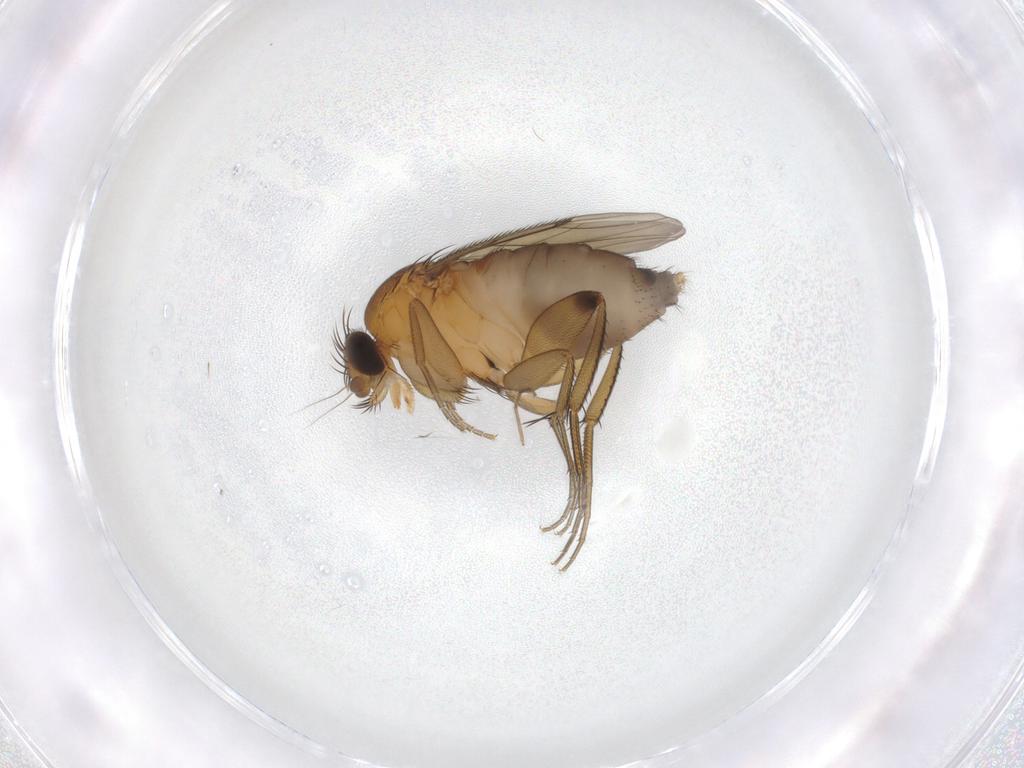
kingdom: Animalia
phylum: Arthropoda
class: Insecta
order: Diptera
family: Phoridae
